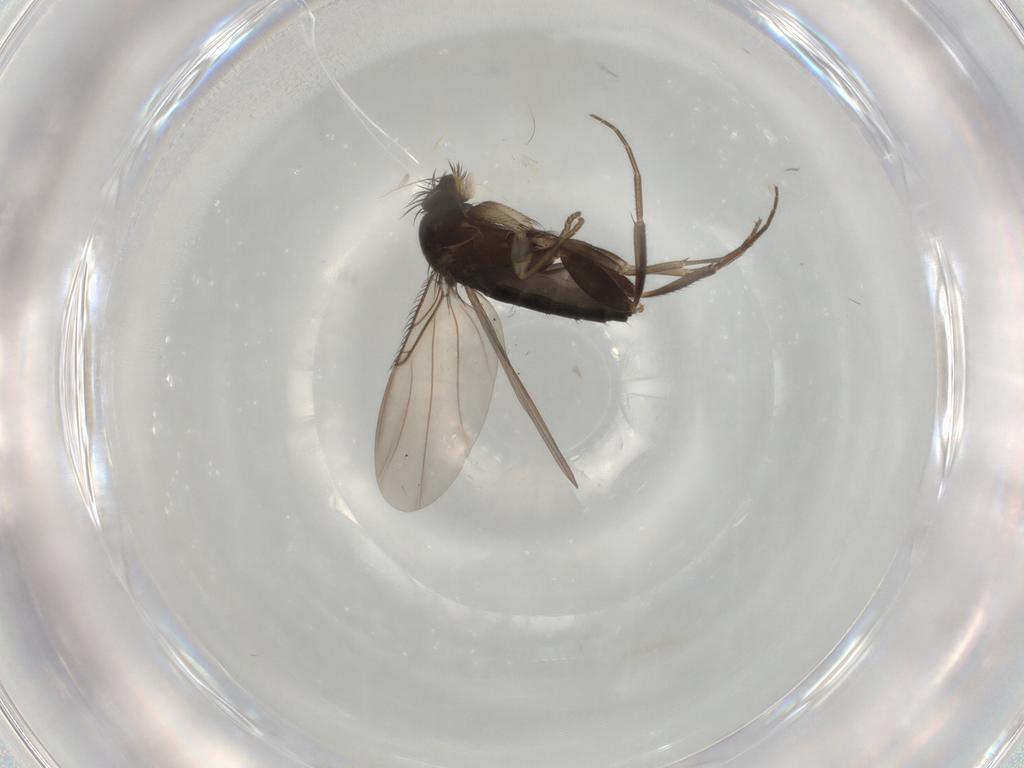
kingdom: Animalia
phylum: Arthropoda
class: Insecta
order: Diptera
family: Phoridae
